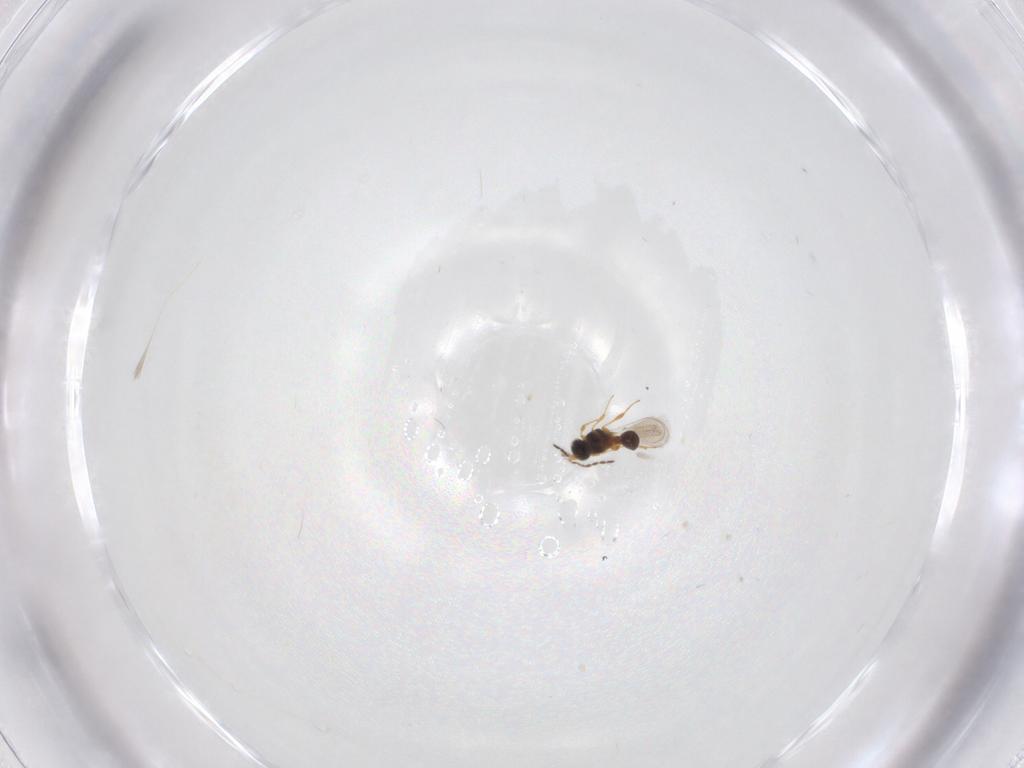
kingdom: Animalia
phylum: Arthropoda
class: Insecta
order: Hymenoptera
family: Platygastridae
